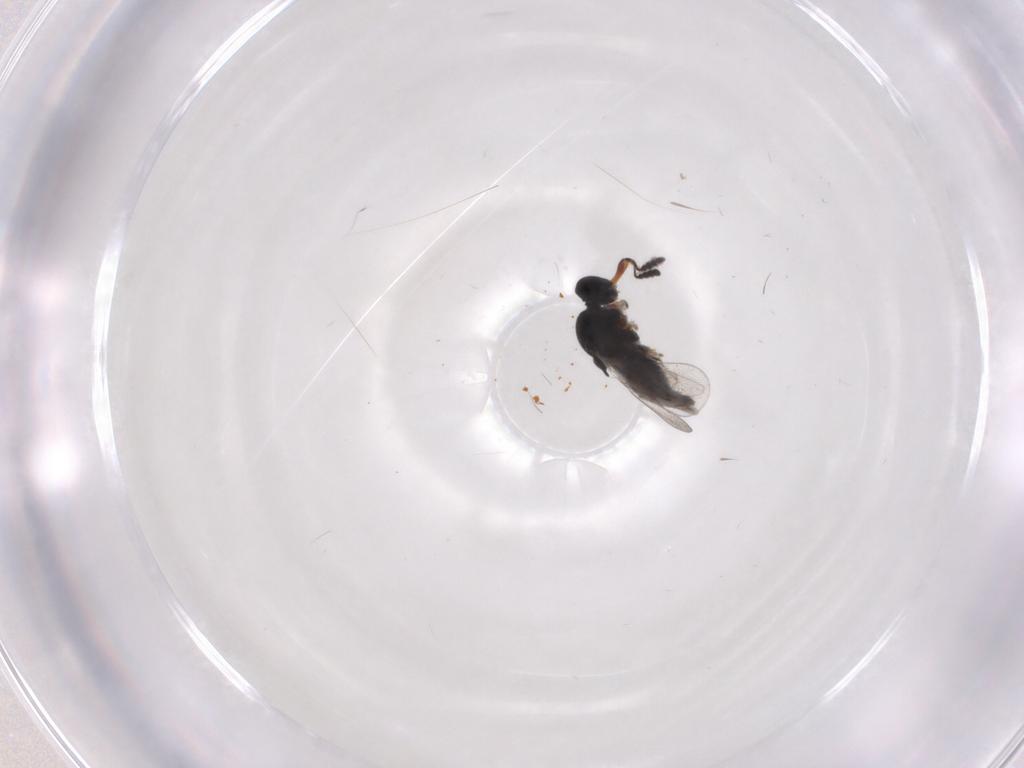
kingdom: Animalia
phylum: Arthropoda
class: Insecta
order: Hymenoptera
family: Platygastridae
